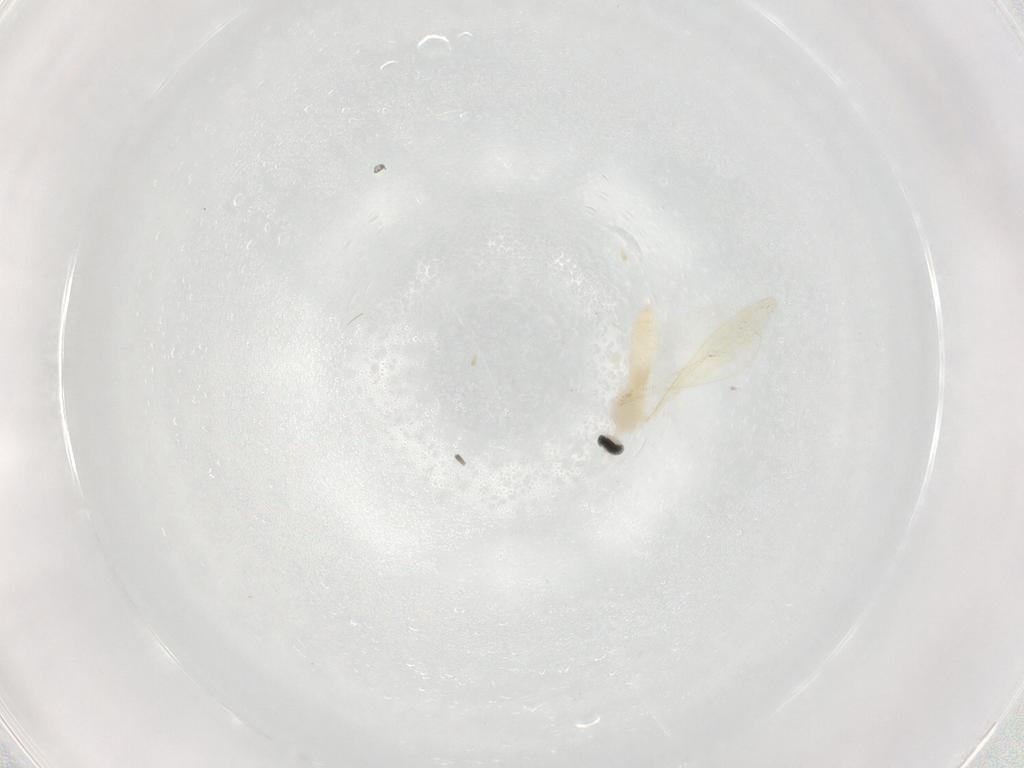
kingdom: Animalia
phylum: Arthropoda
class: Insecta
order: Diptera
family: Cecidomyiidae
